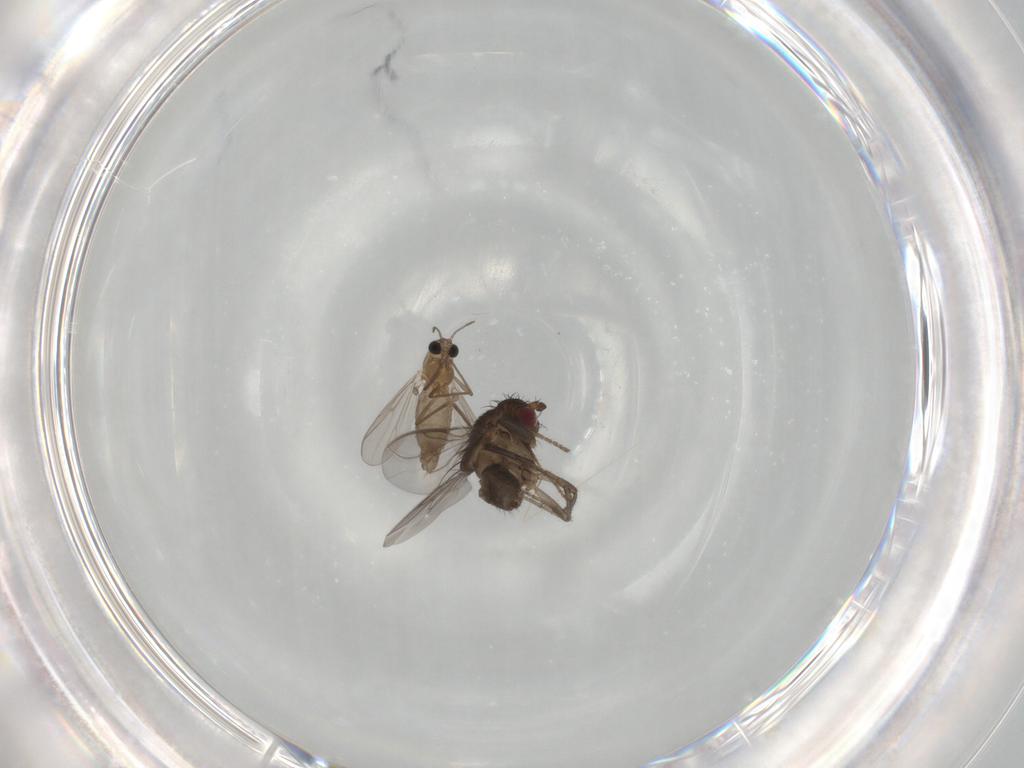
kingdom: Animalia
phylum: Arthropoda
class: Insecta
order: Diptera
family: Chironomidae
